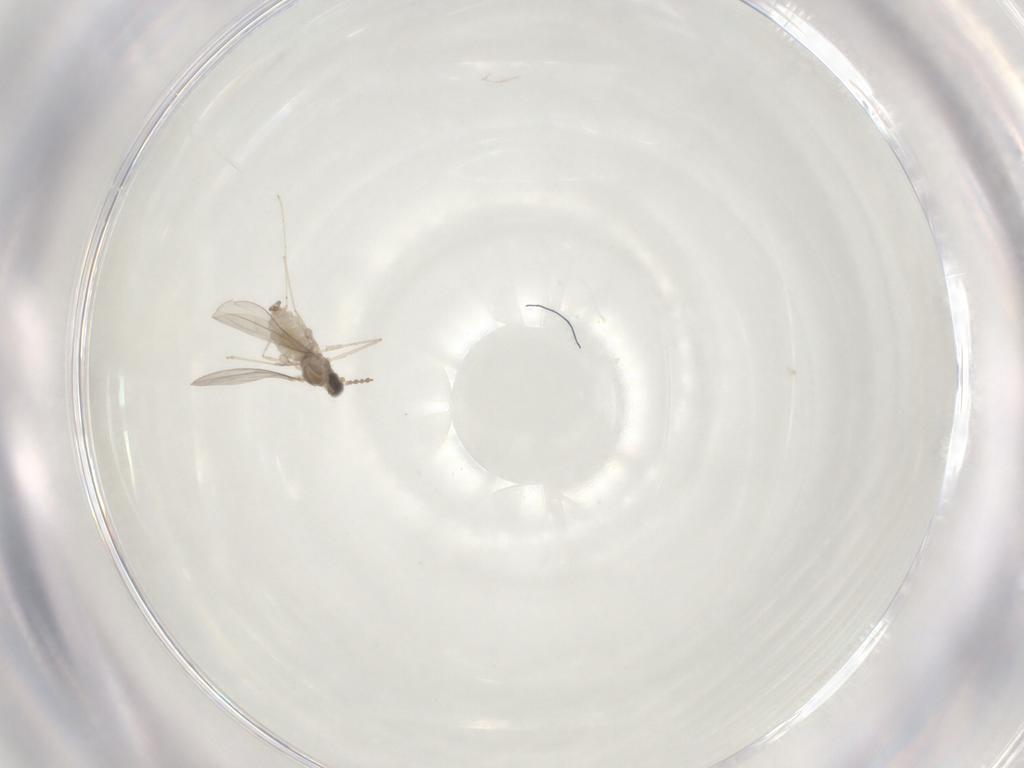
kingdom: Animalia
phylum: Arthropoda
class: Insecta
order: Diptera
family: Cecidomyiidae
